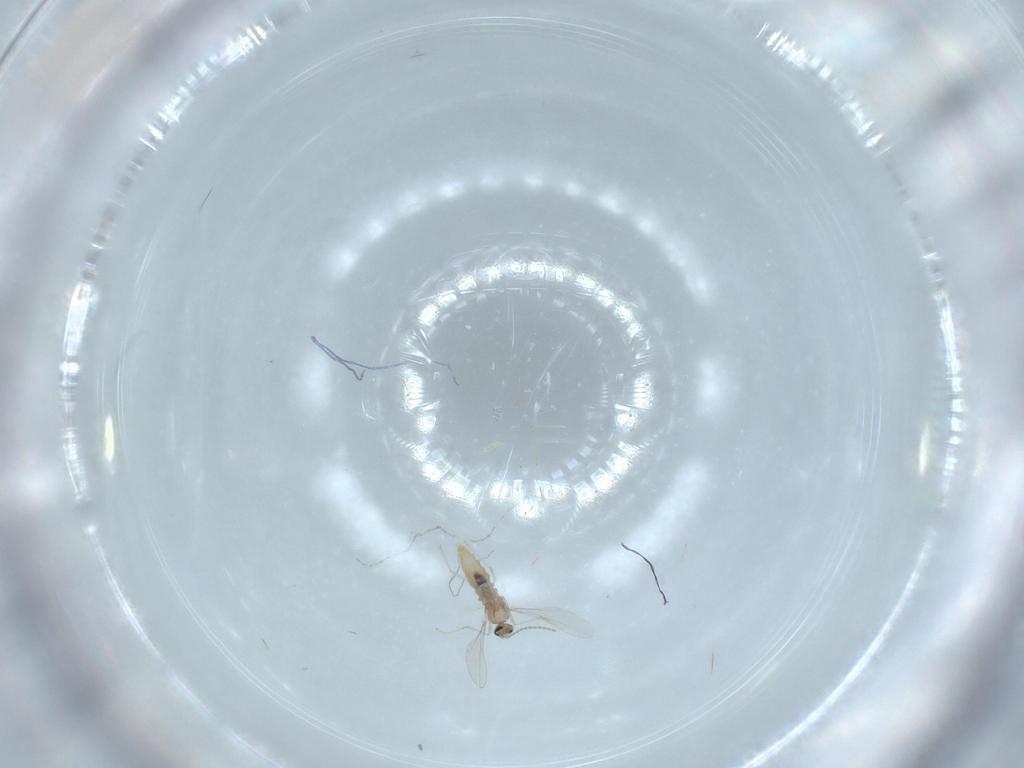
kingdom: Animalia
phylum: Arthropoda
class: Insecta
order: Diptera
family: Cecidomyiidae
